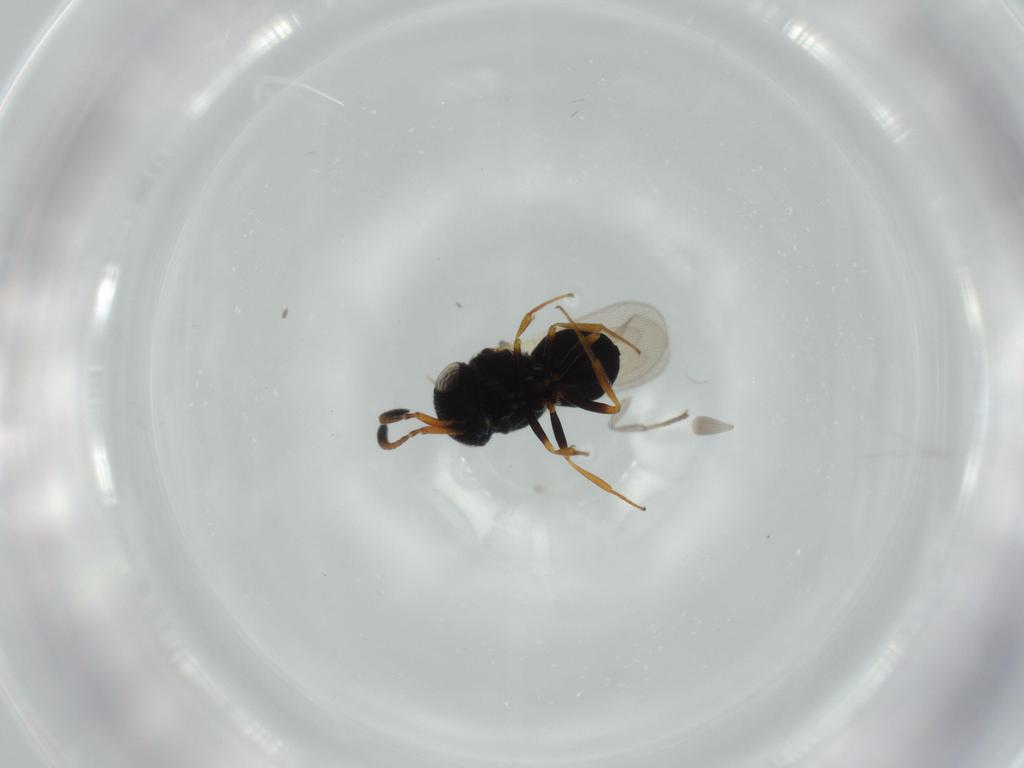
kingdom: Animalia
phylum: Arthropoda
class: Insecta
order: Hymenoptera
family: Scelionidae
